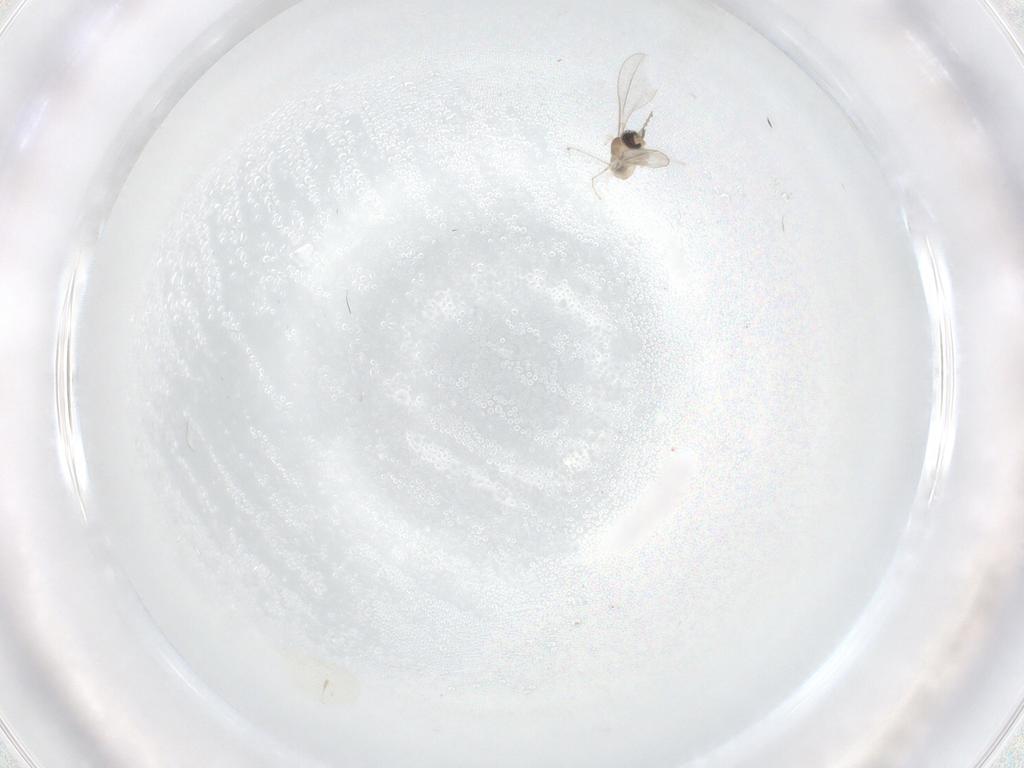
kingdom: Animalia
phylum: Arthropoda
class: Insecta
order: Diptera
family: Cecidomyiidae
